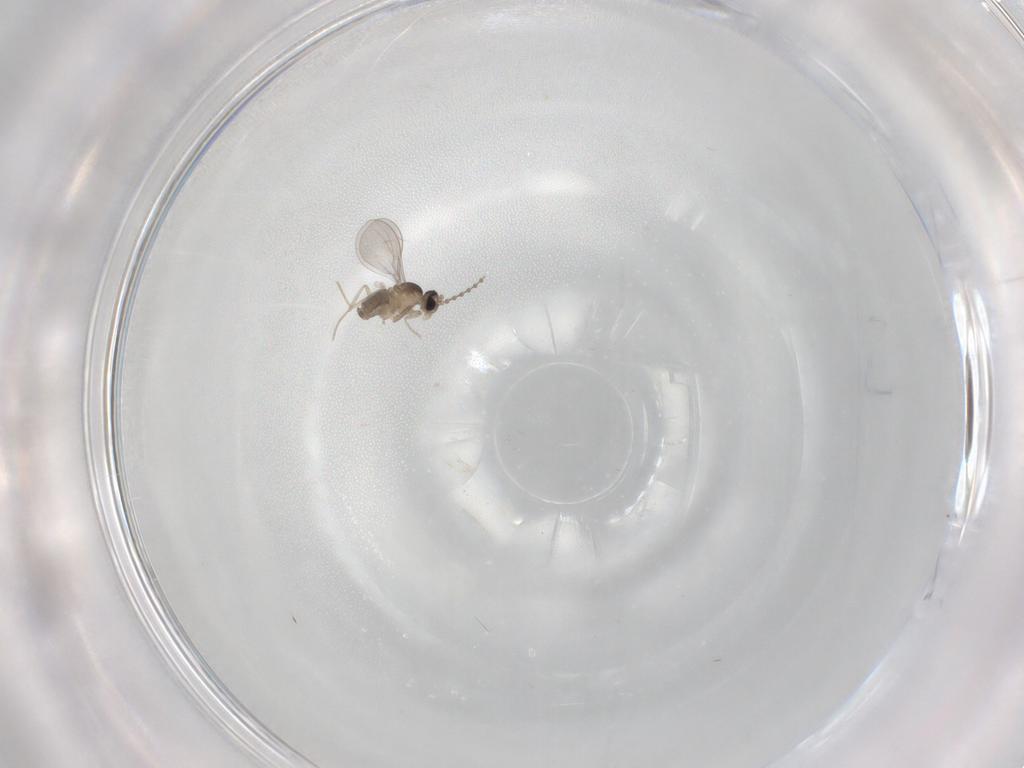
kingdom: Animalia
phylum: Arthropoda
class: Insecta
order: Diptera
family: Cecidomyiidae
